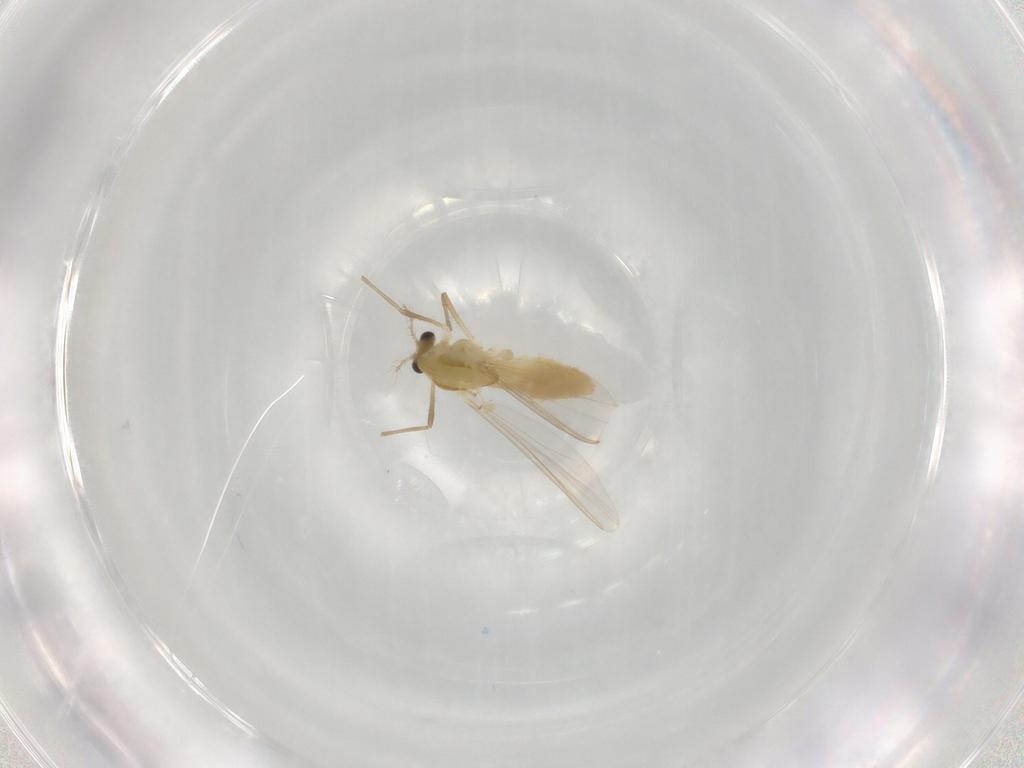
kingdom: Animalia
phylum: Arthropoda
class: Insecta
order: Diptera
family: Chironomidae
